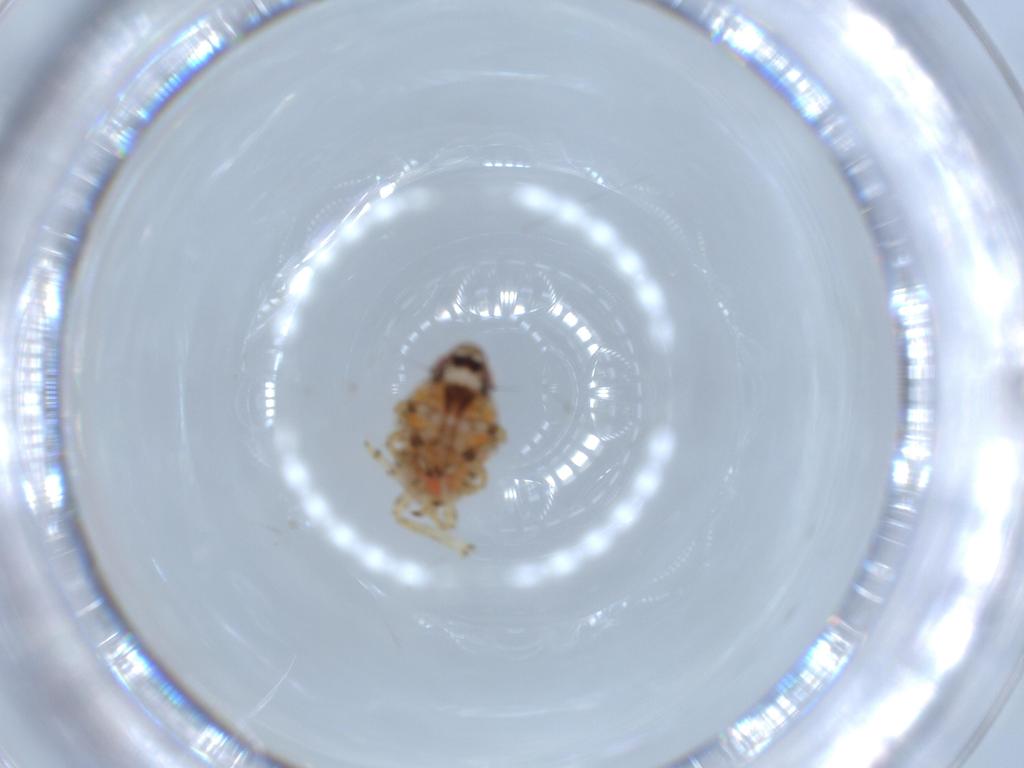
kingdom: Animalia
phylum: Arthropoda
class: Insecta
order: Hemiptera
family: Issidae
